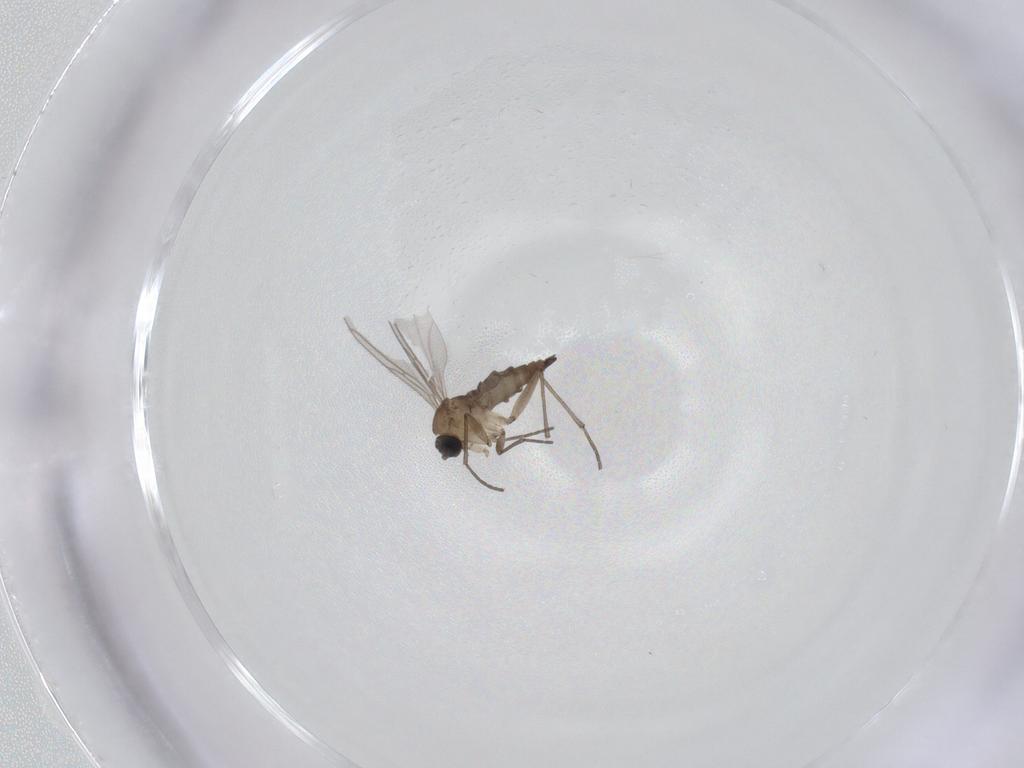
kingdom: Animalia
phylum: Arthropoda
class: Insecta
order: Diptera
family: Sciaridae
